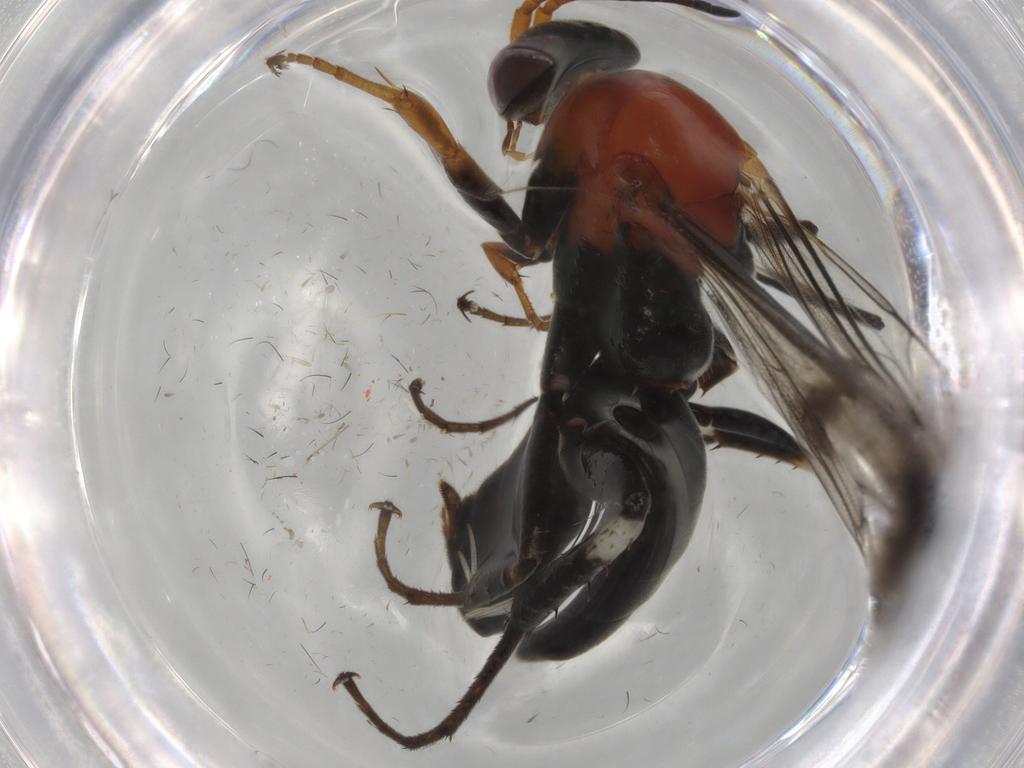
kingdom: Animalia
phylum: Arthropoda
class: Insecta
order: Hymenoptera
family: Pompilidae
